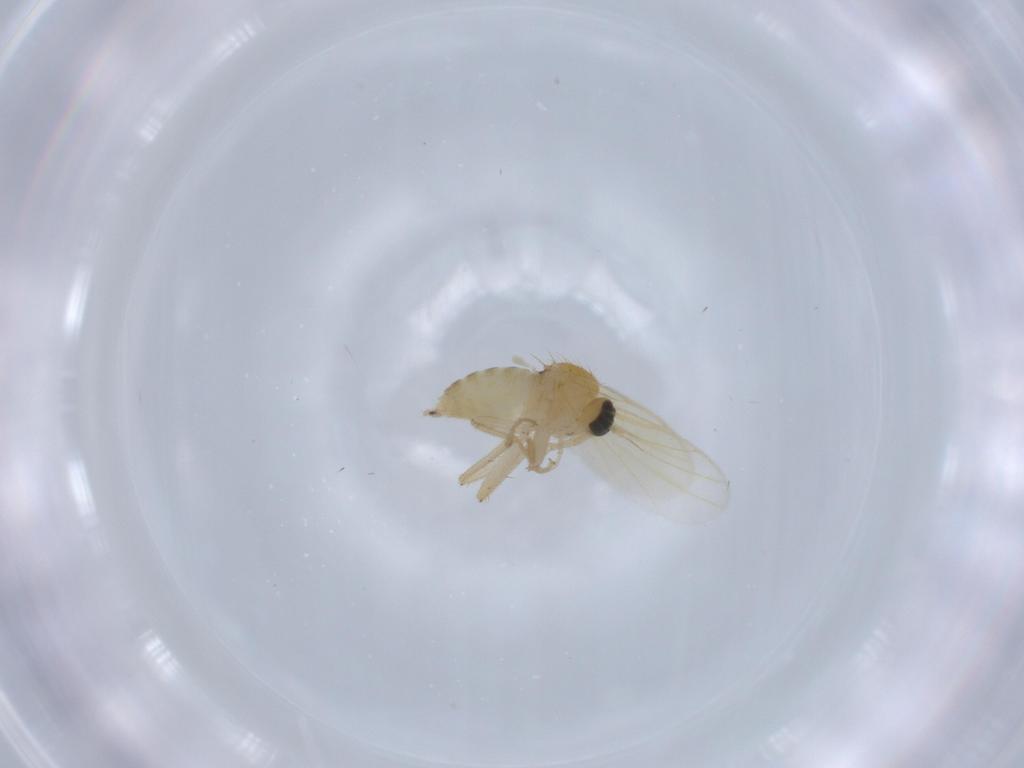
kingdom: Animalia
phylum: Arthropoda
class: Insecta
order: Diptera
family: Hybotidae
